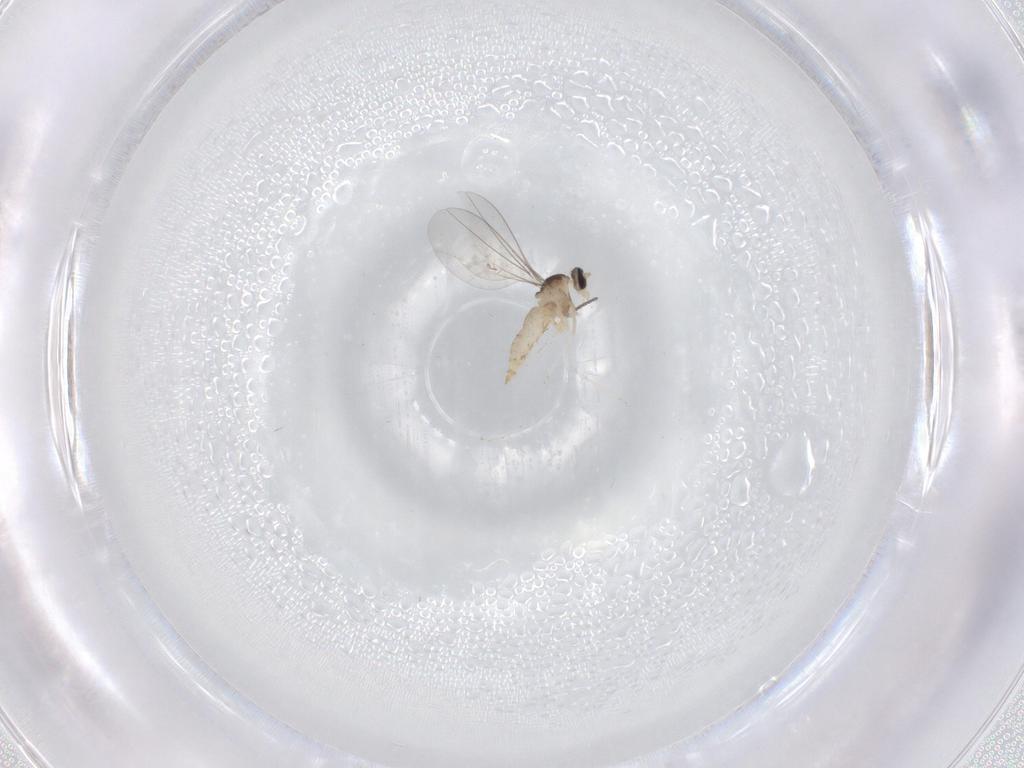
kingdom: Animalia
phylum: Arthropoda
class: Insecta
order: Diptera
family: Cecidomyiidae
